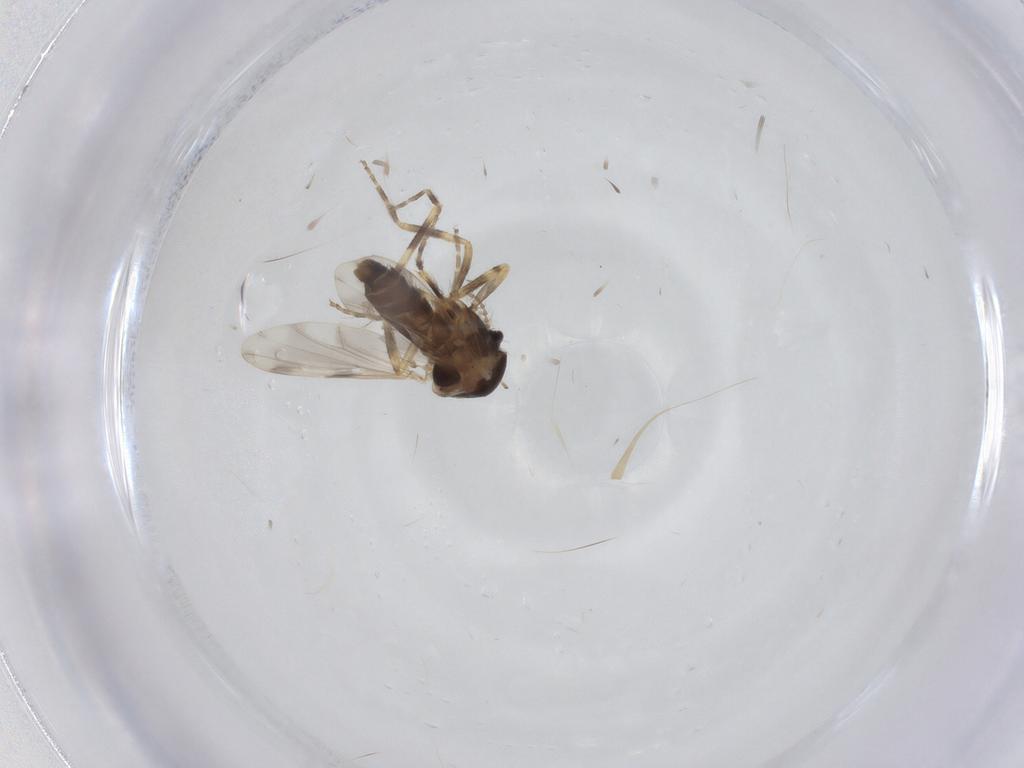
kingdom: Animalia
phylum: Arthropoda
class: Insecta
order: Diptera
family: Ceratopogonidae
